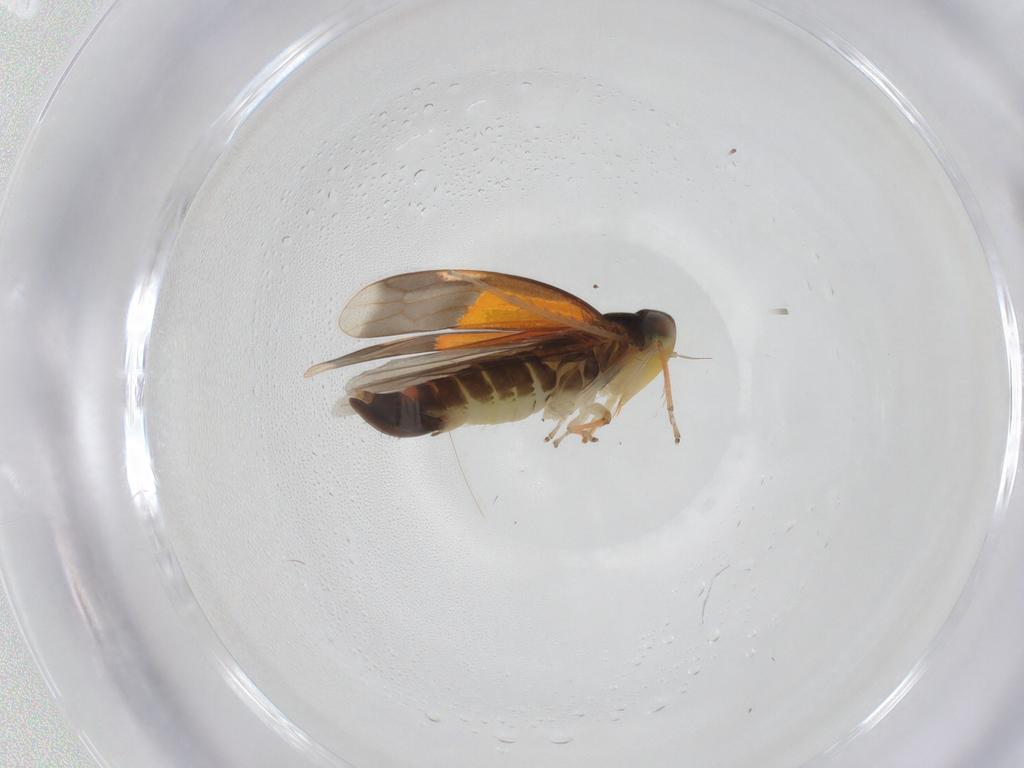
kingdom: Animalia
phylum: Arthropoda
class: Insecta
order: Hemiptera
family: Cicadellidae
